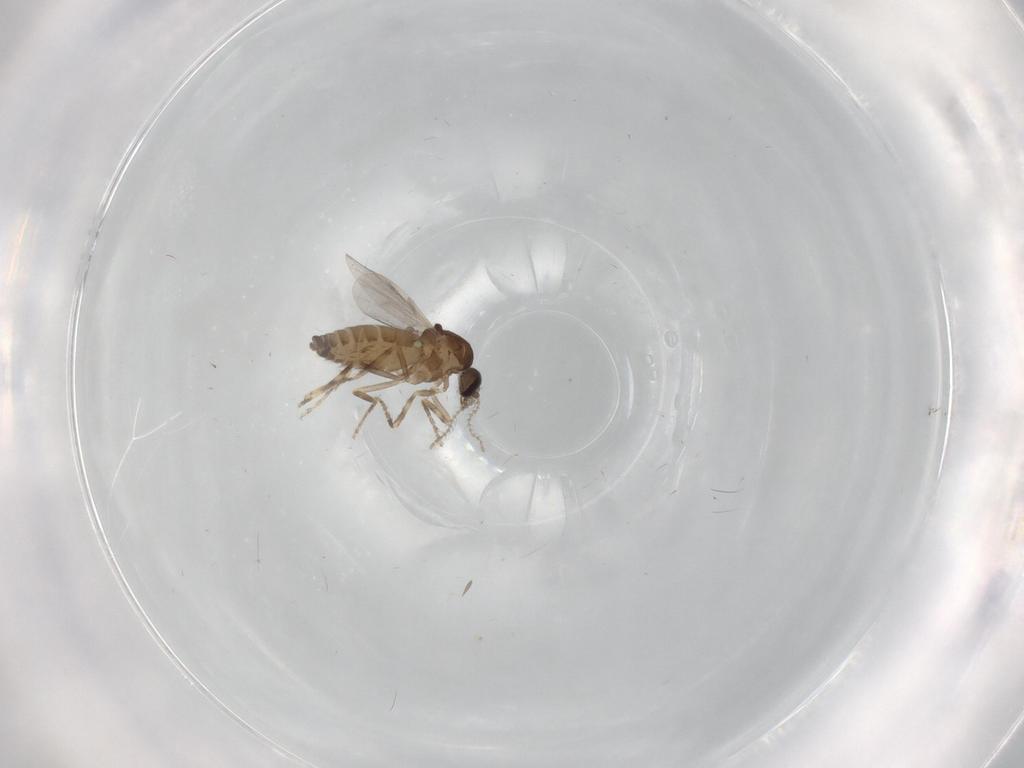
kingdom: Animalia
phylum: Arthropoda
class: Insecta
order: Diptera
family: Ceratopogonidae
